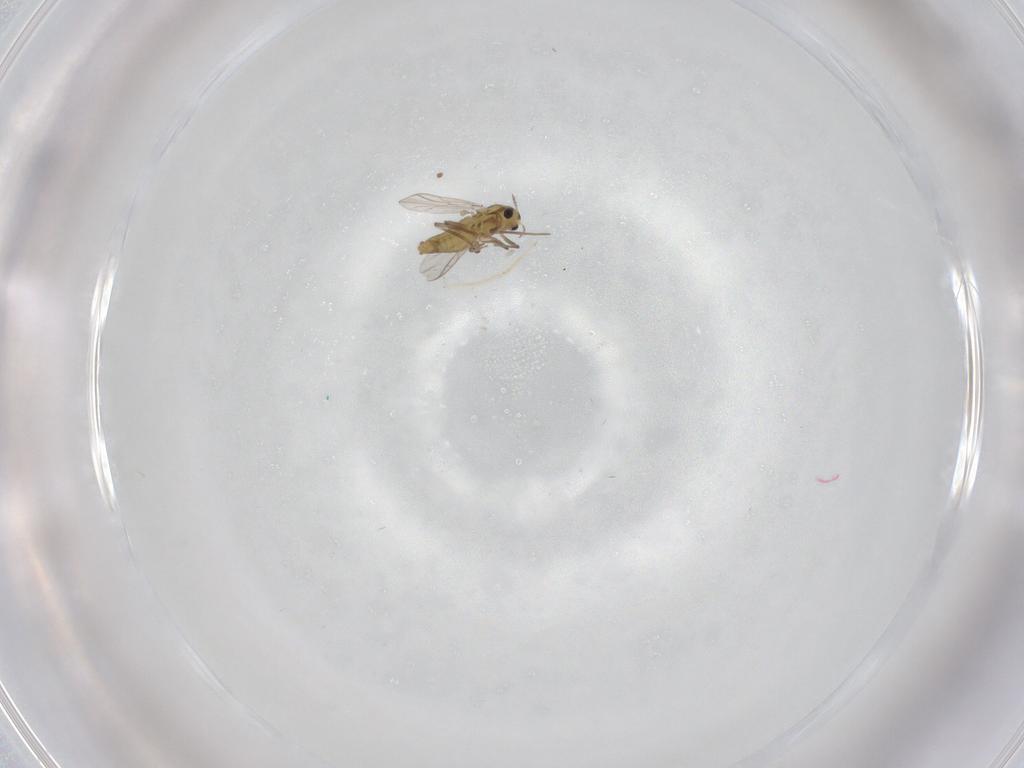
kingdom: Animalia
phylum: Arthropoda
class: Insecta
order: Diptera
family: Chironomidae
